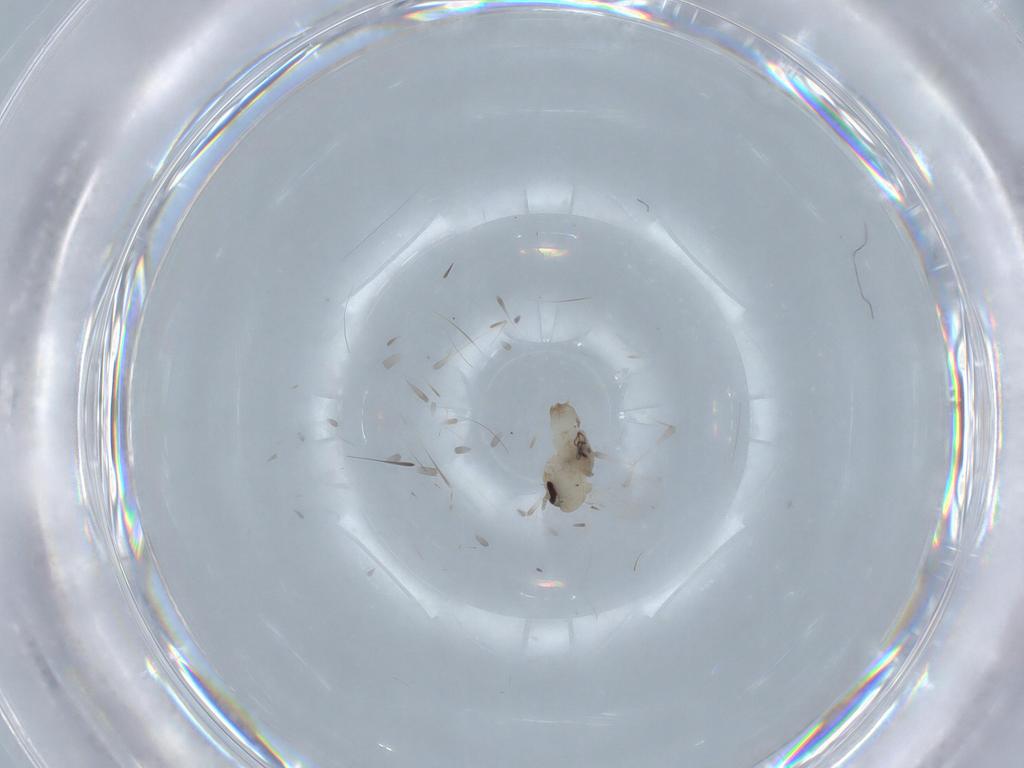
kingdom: Animalia
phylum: Arthropoda
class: Insecta
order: Diptera
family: Psychodidae
